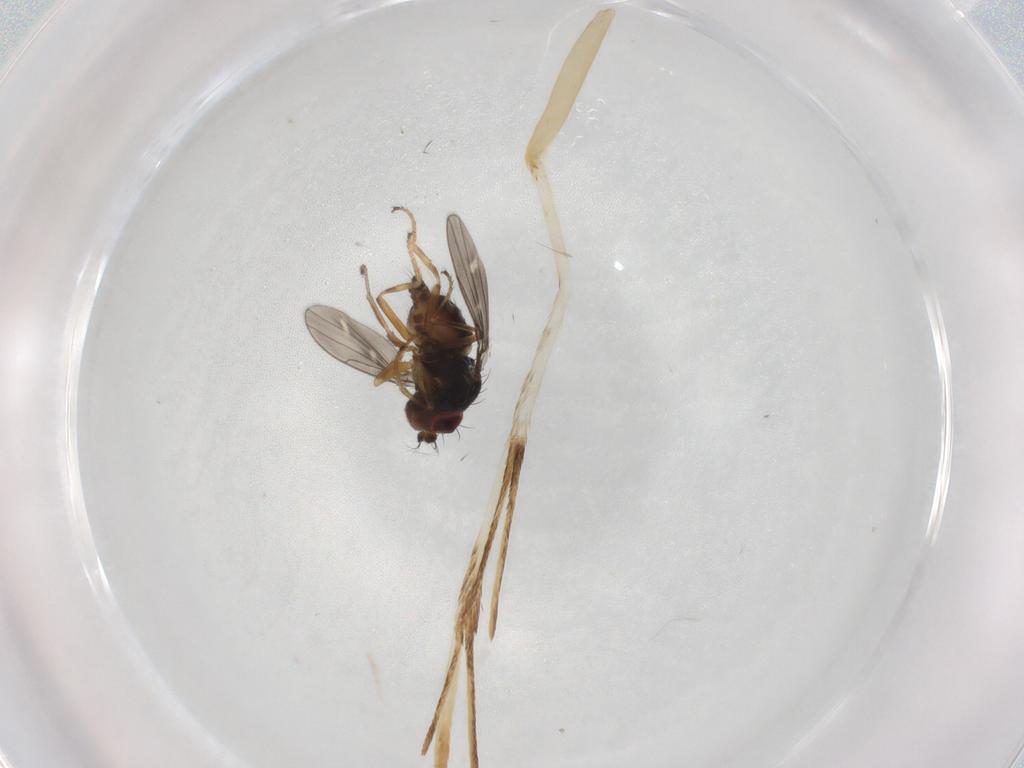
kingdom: Animalia
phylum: Arthropoda
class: Insecta
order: Diptera
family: Ephydridae
